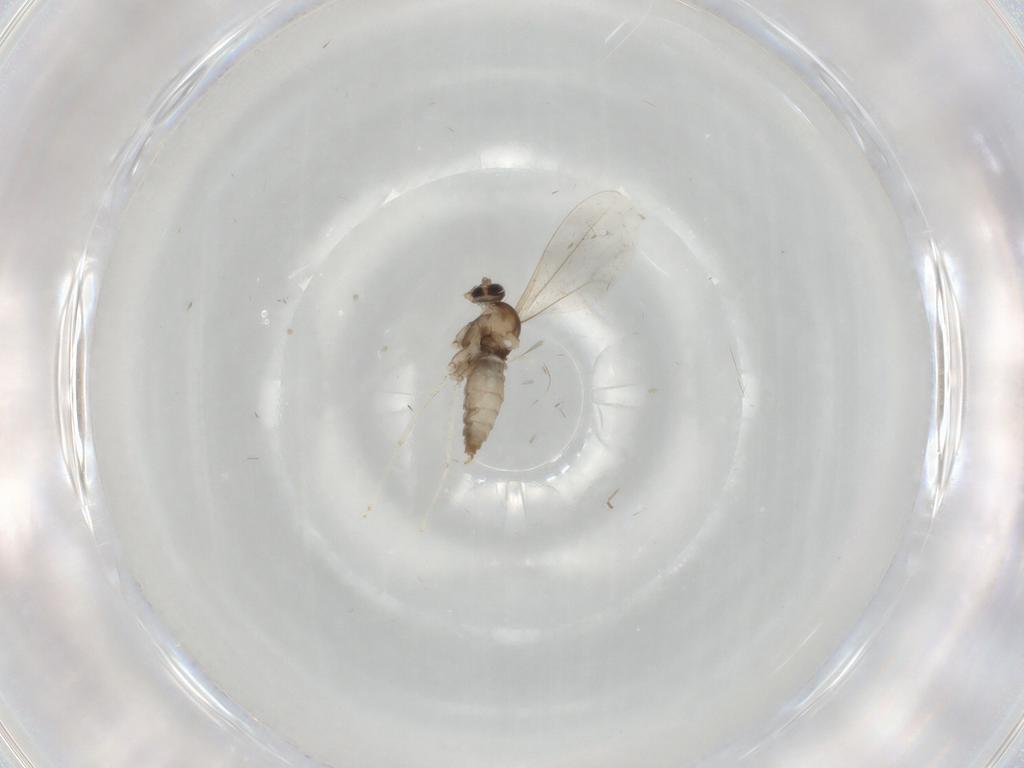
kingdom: Animalia
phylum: Arthropoda
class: Insecta
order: Diptera
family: Cecidomyiidae
